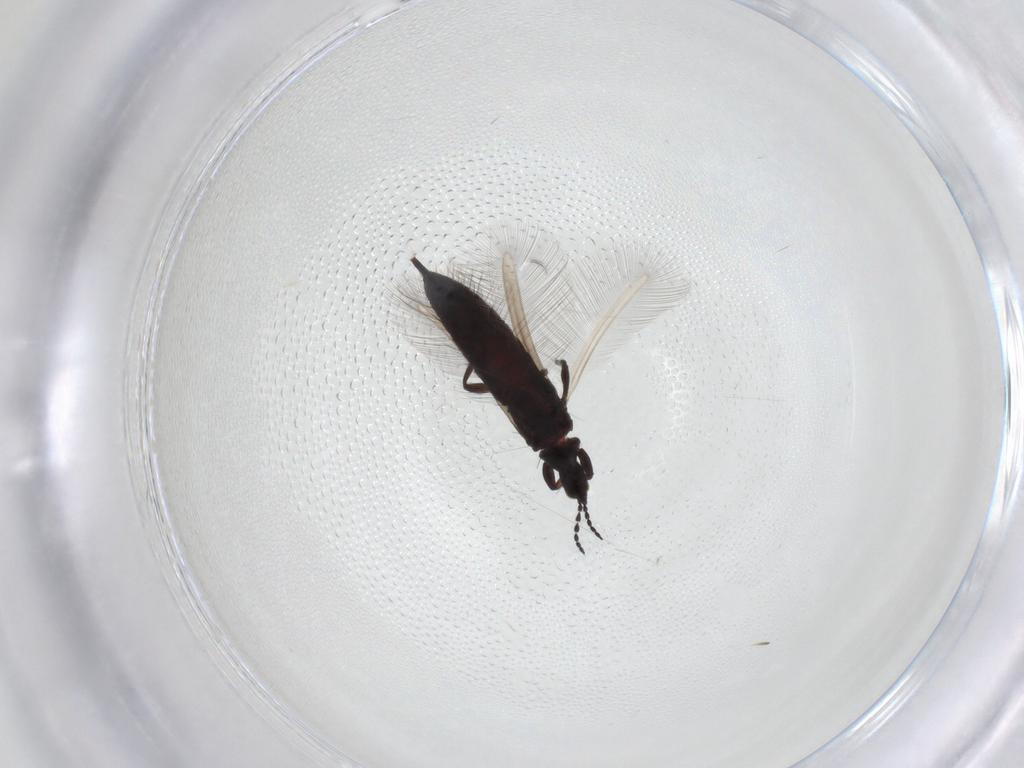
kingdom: Animalia
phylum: Arthropoda
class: Insecta
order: Thysanoptera
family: Phlaeothripidae
